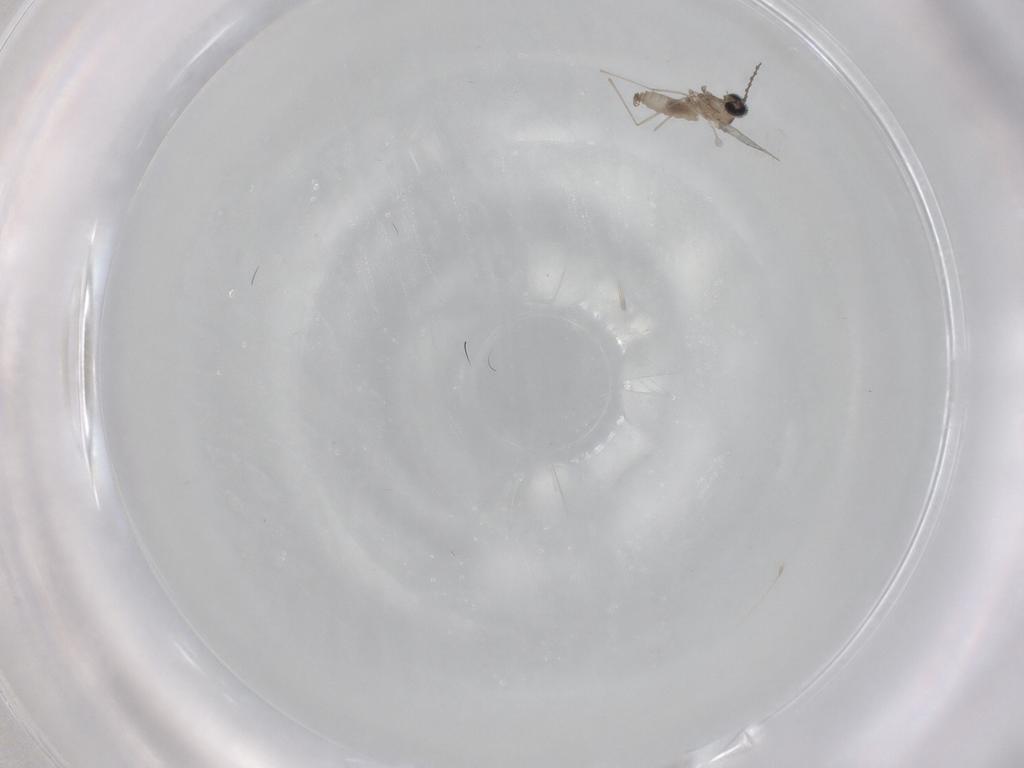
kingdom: Animalia
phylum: Arthropoda
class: Insecta
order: Diptera
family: Cecidomyiidae
